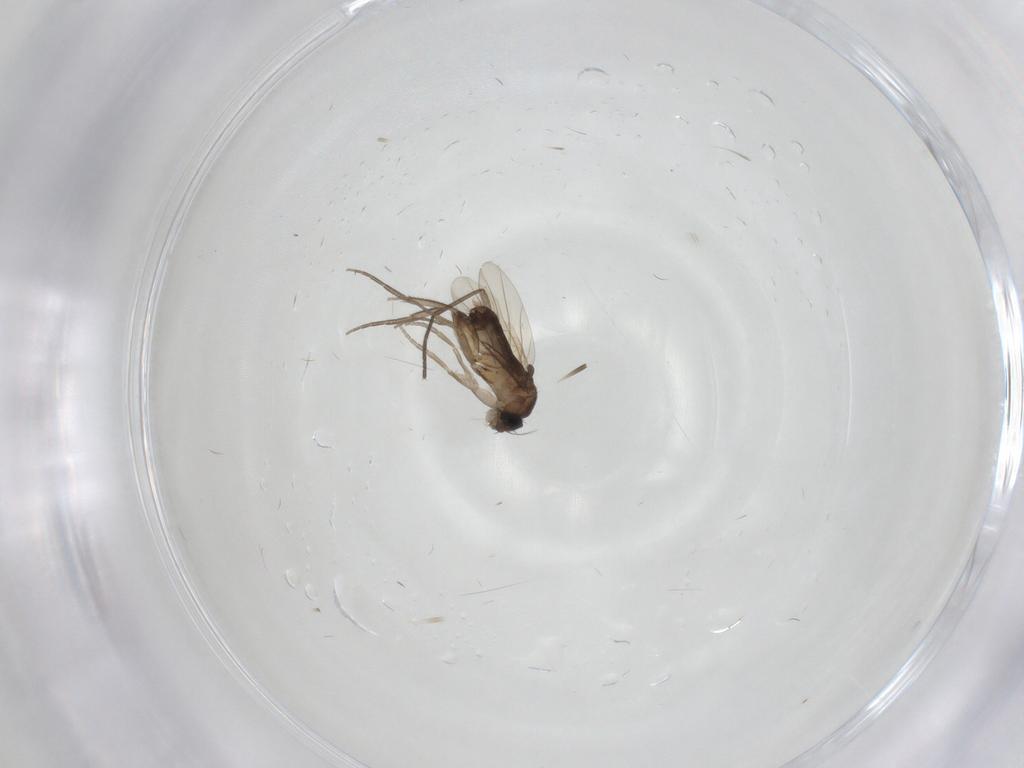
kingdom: Animalia
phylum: Arthropoda
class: Insecta
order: Diptera
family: Phoridae
